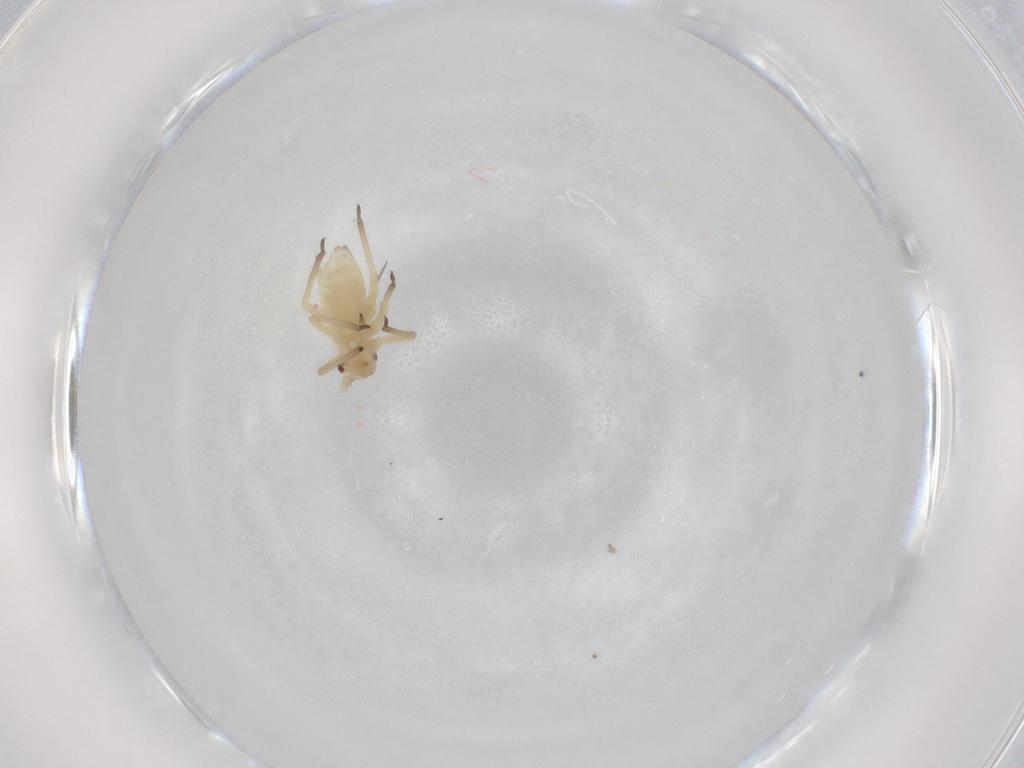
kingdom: Animalia
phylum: Arthropoda
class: Insecta
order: Hemiptera
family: Aphididae
